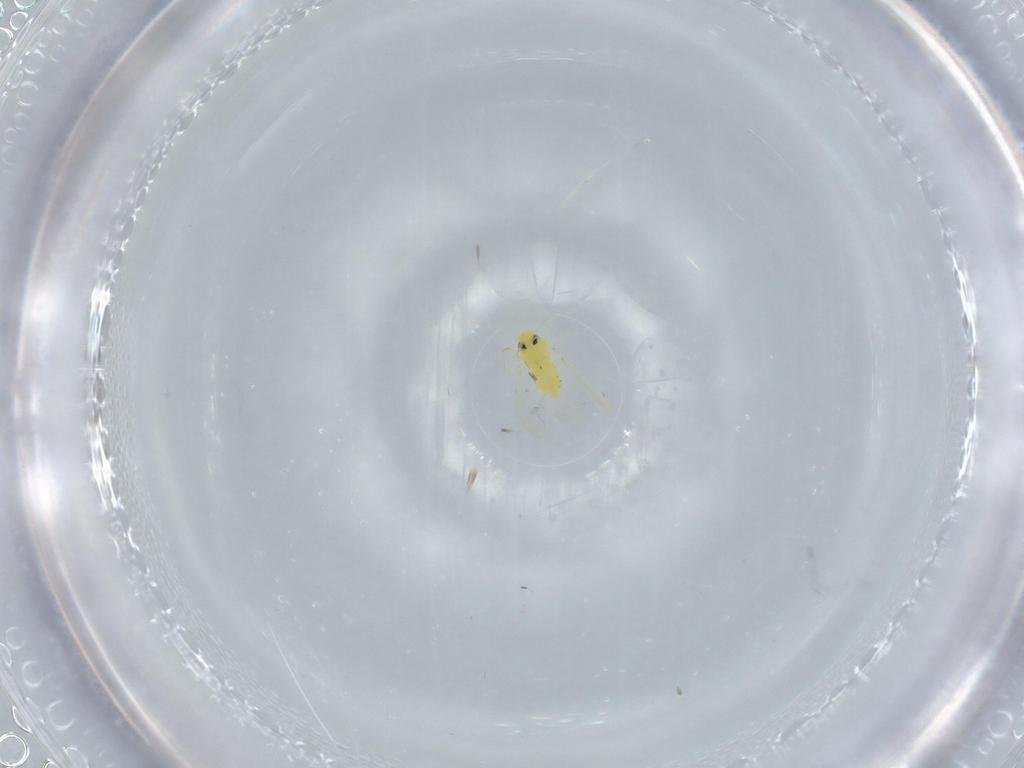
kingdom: Animalia
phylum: Arthropoda
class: Insecta
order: Hemiptera
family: Aleyrodidae
